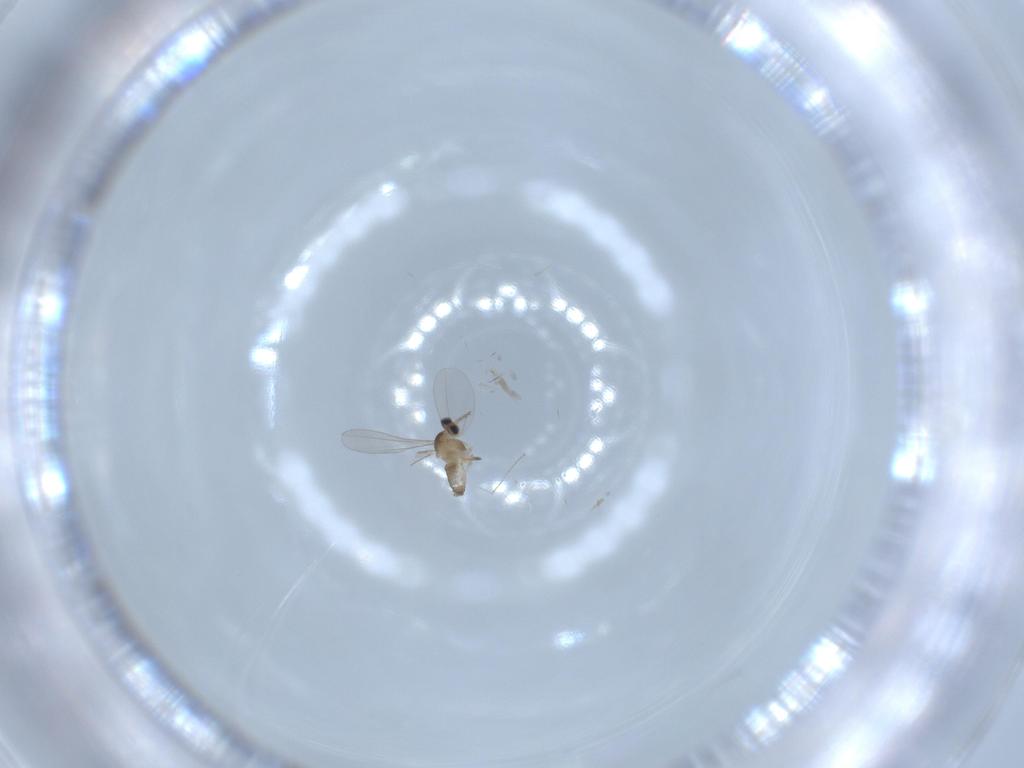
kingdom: Animalia
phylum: Arthropoda
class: Insecta
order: Diptera
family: Cecidomyiidae
